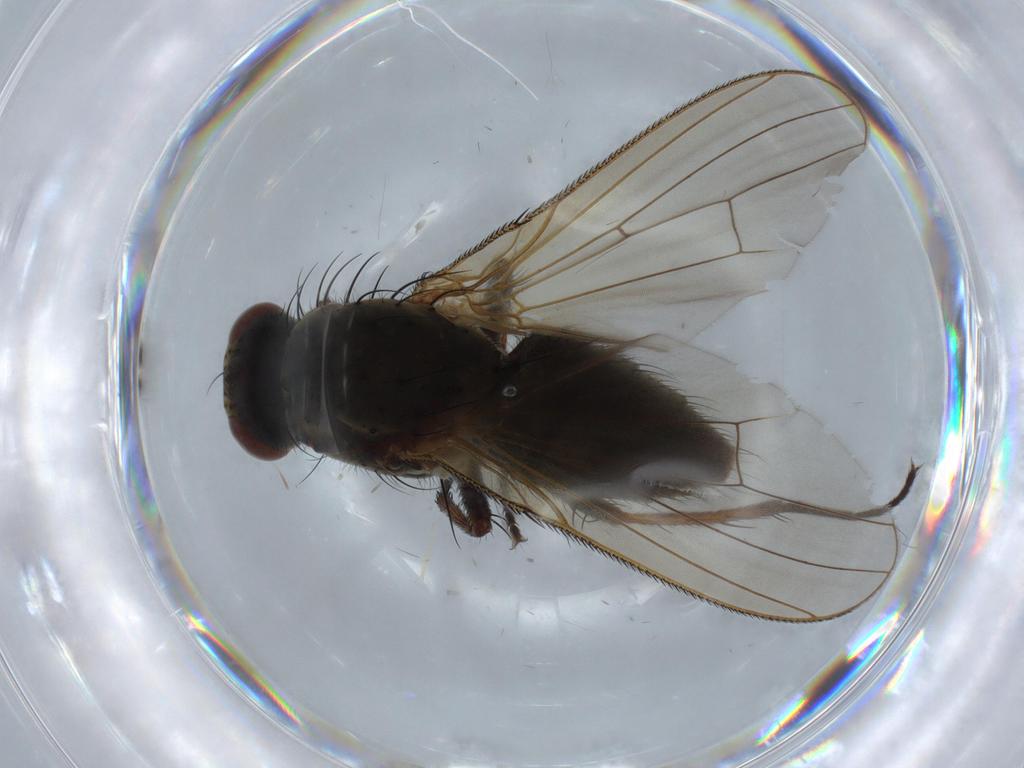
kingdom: Animalia
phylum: Arthropoda
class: Insecta
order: Diptera
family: Anthomyiidae
